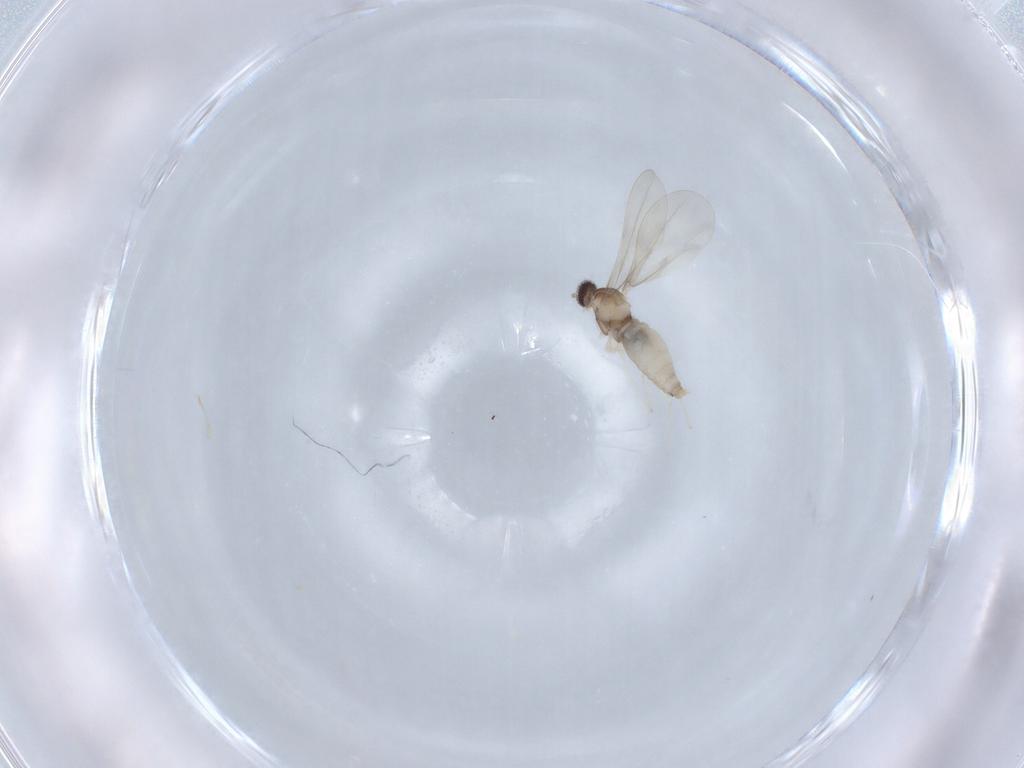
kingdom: Animalia
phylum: Arthropoda
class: Insecta
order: Diptera
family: Cecidomyiidae
